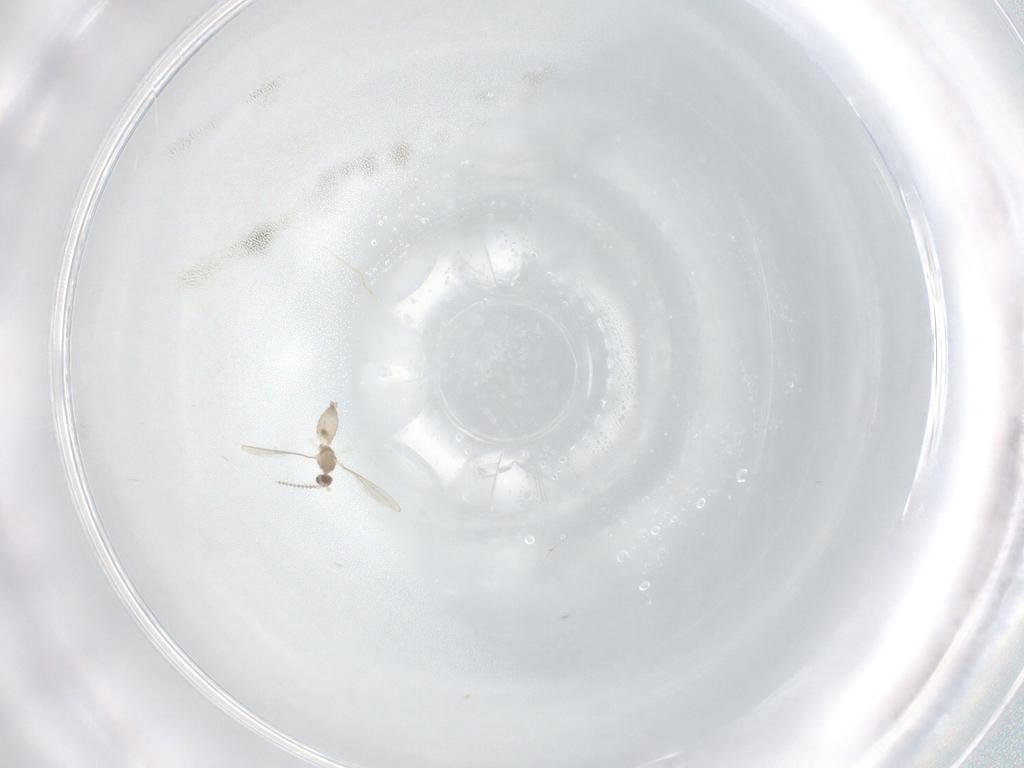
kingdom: Animalia
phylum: Arthropoda
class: Insecta
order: Diptera
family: Cecidomyiidae
